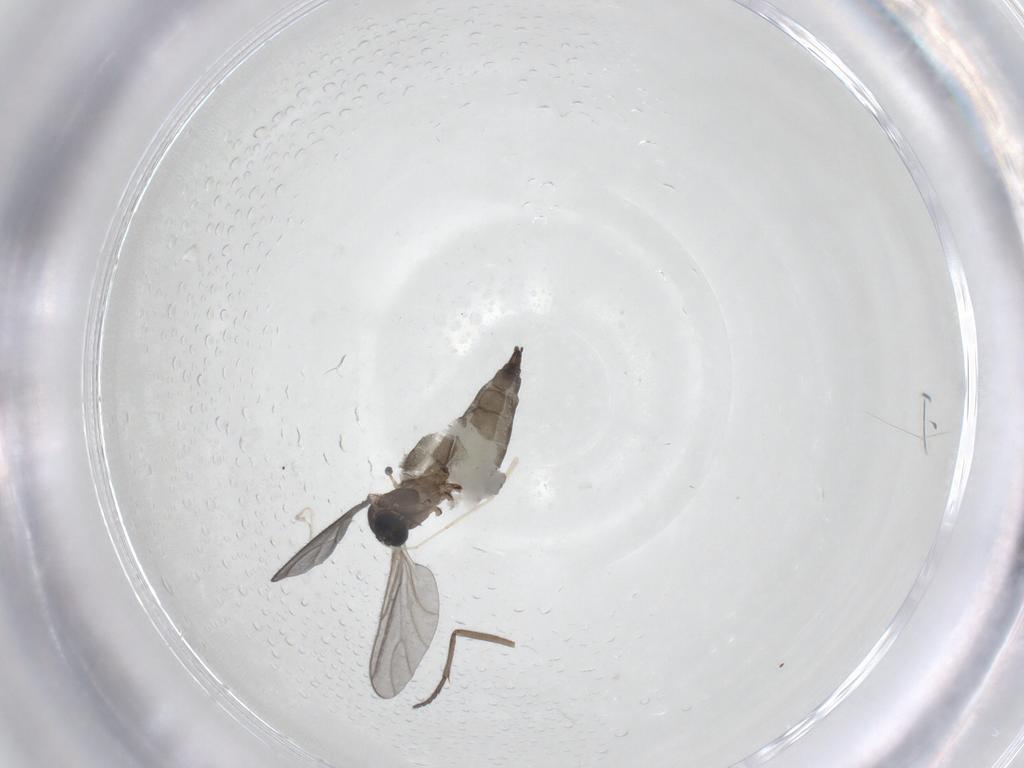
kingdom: Animalia
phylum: Arthropoda
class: Insecta
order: Diptera
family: Sciaridae
